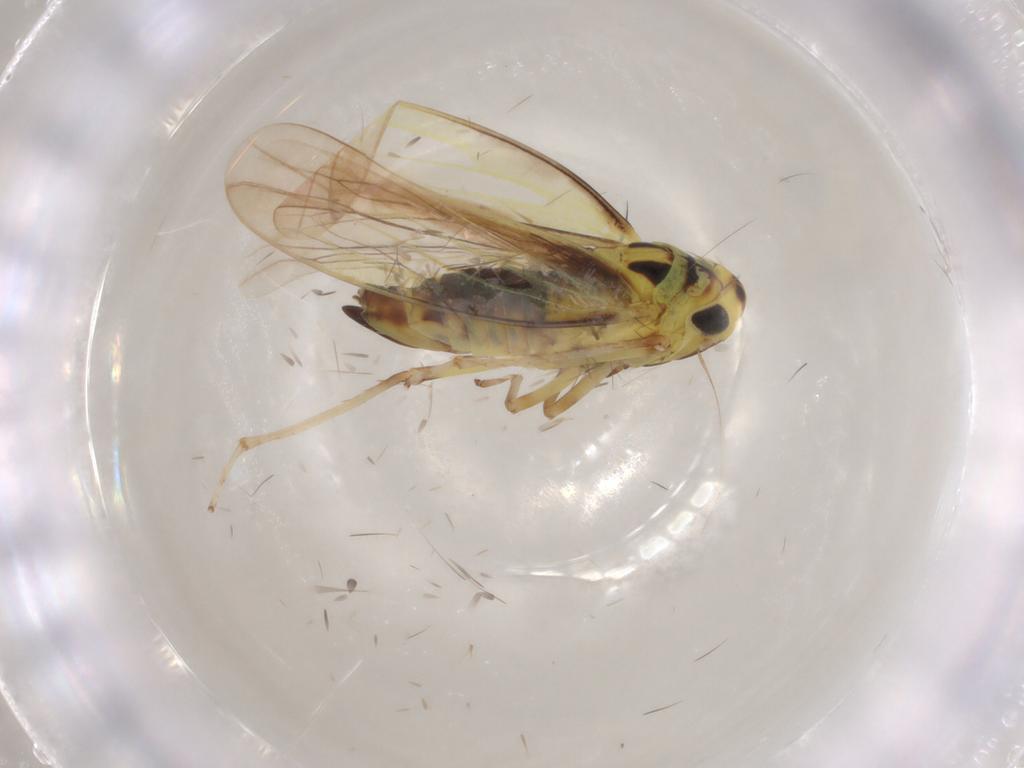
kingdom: Animalia
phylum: Arthropoda
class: Insecta
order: Hemiptera
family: Cicadellidae
